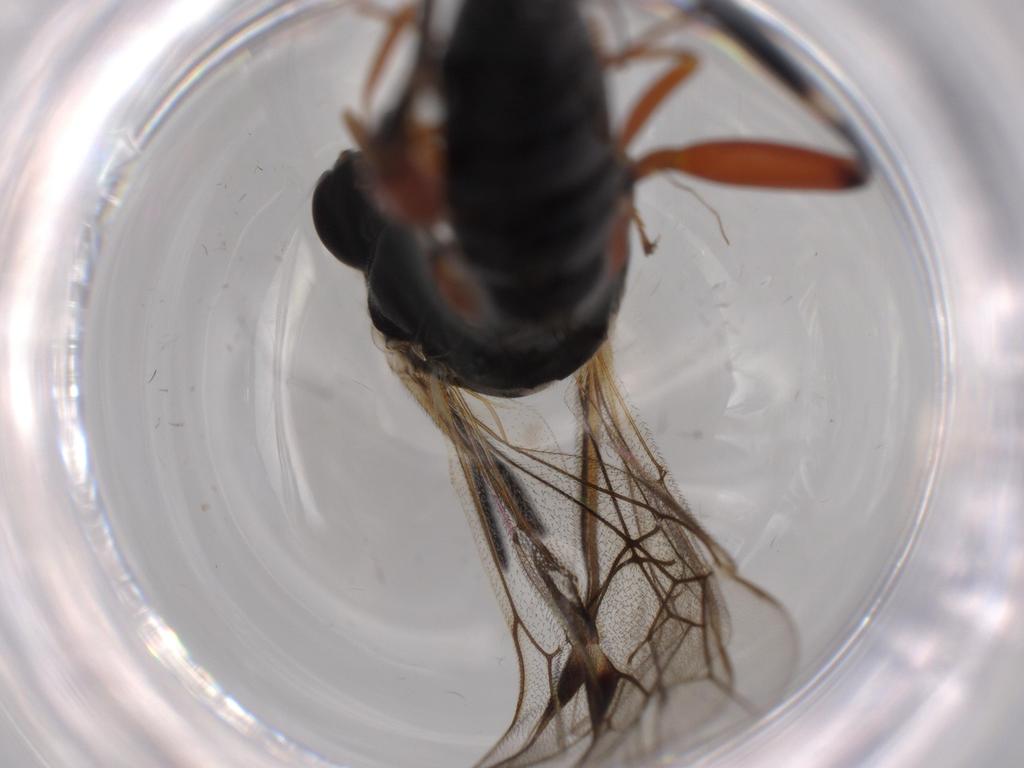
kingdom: Animalia
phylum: Arthropoda
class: Insecta
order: Hymenoptera
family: Ichneumonidae
